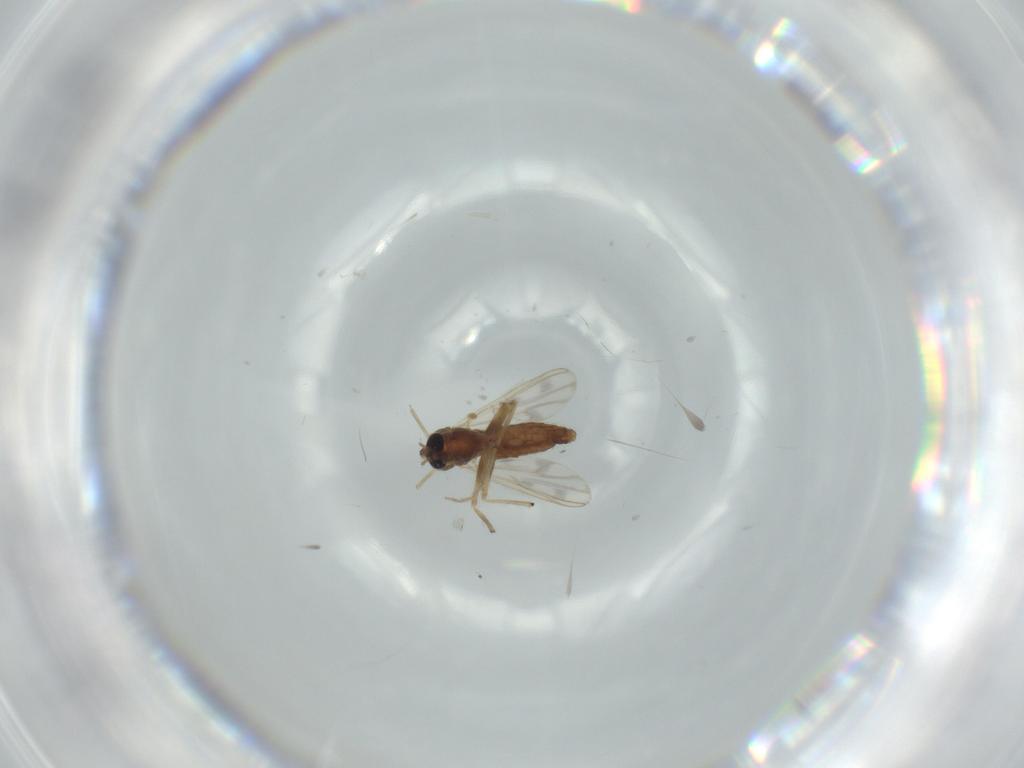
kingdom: Animalia
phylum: Arthropoda
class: Insecta
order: Diptera
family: Chironomidae
